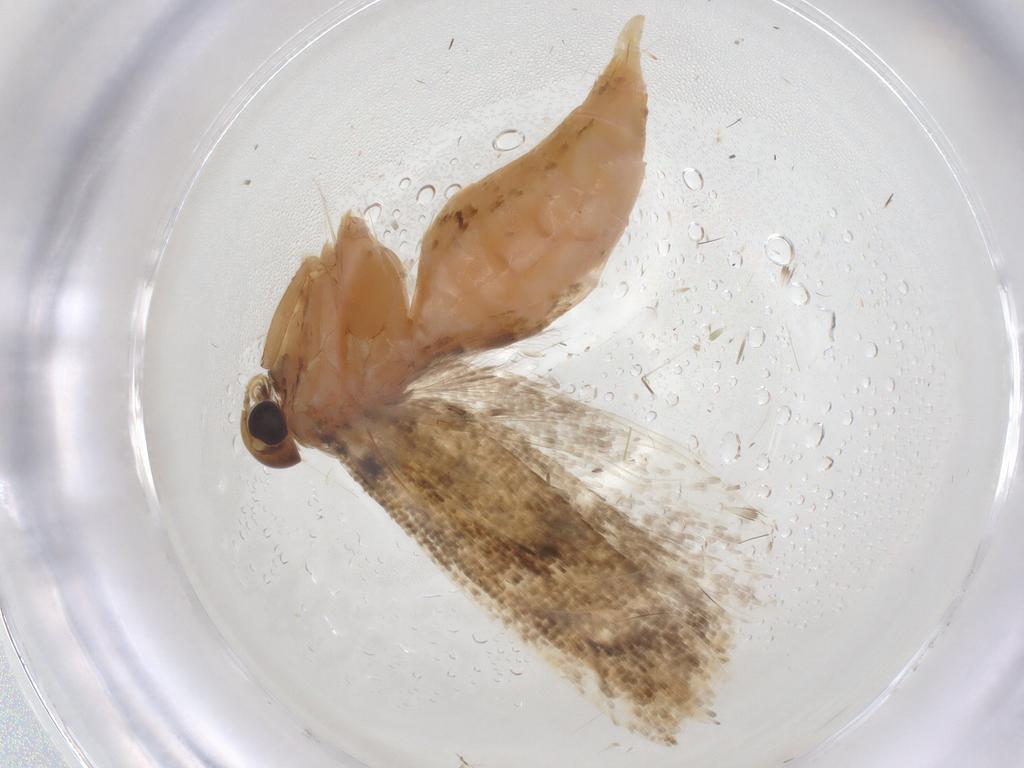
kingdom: Animalia
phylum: Arthropoda
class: Insecta
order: Lepidoptera
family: Gelechiidae
